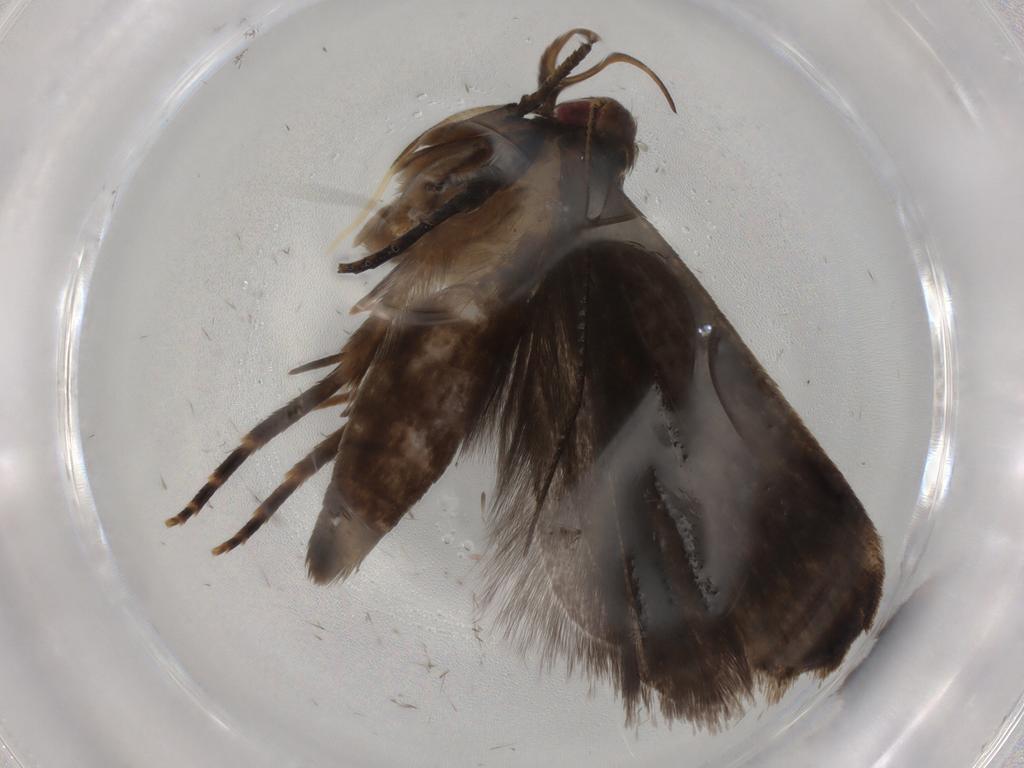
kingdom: Animalia
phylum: Arthropoda
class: Insecta
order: Lepidoptera
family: Gelechiidae
